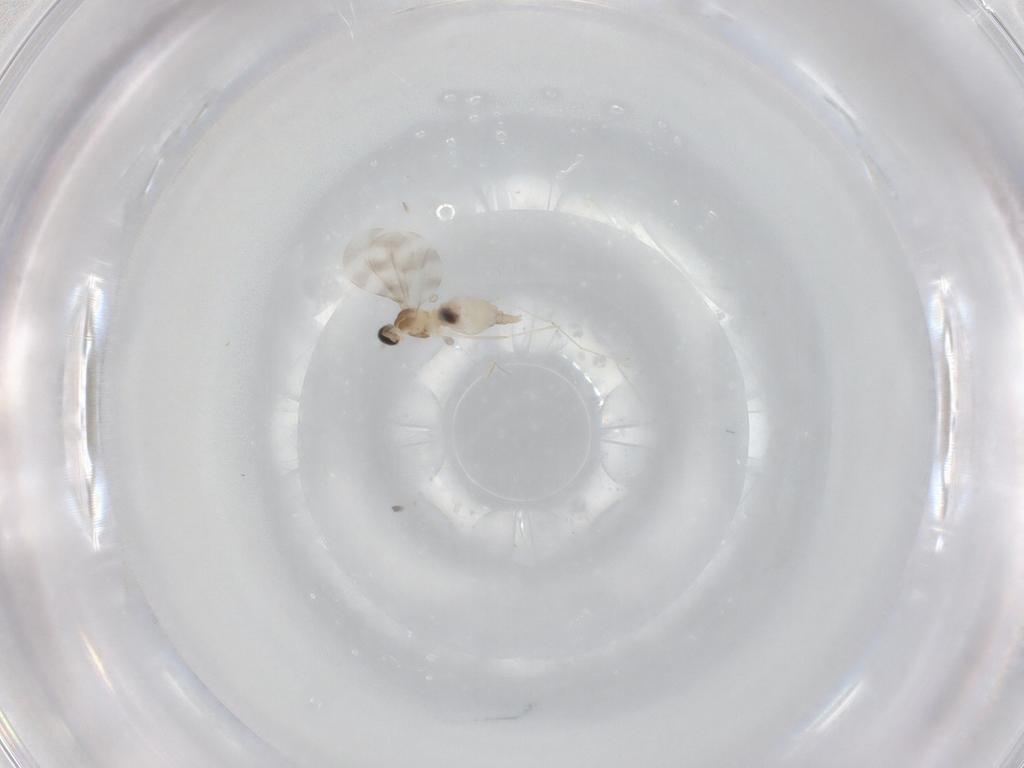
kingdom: Animalia
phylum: Arthropoda
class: Insecta
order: Diptera
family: Cecidomyiidae
